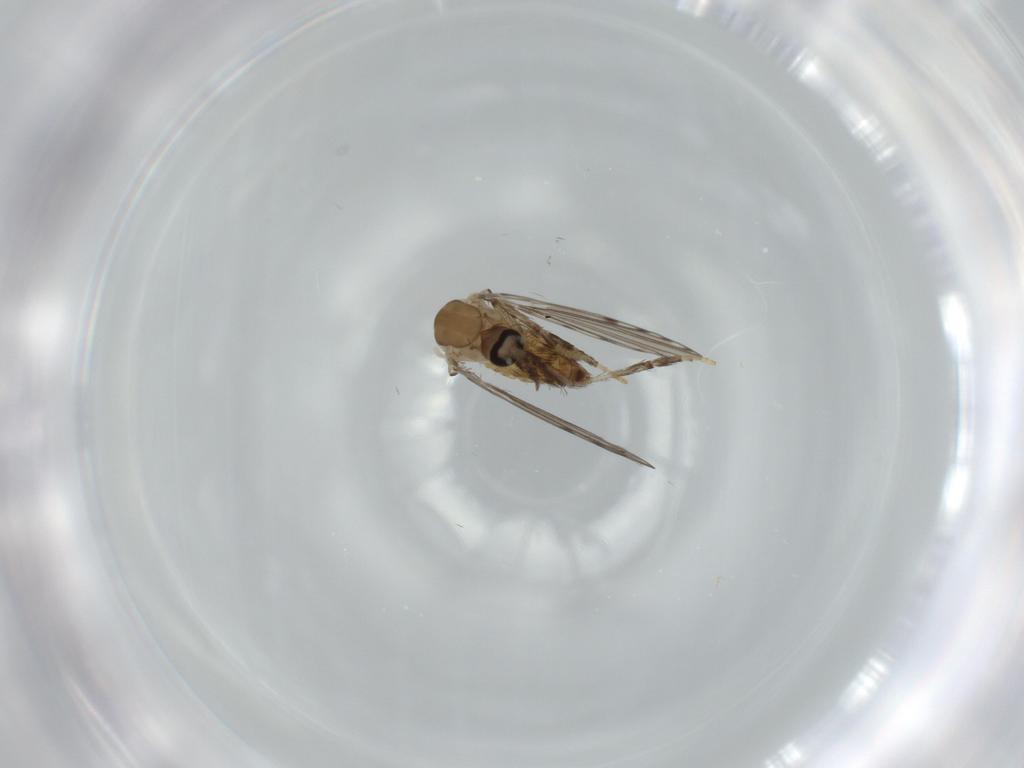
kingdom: Animalia
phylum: Arthropoda
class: Insecta
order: Diptera
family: Psychodidae
